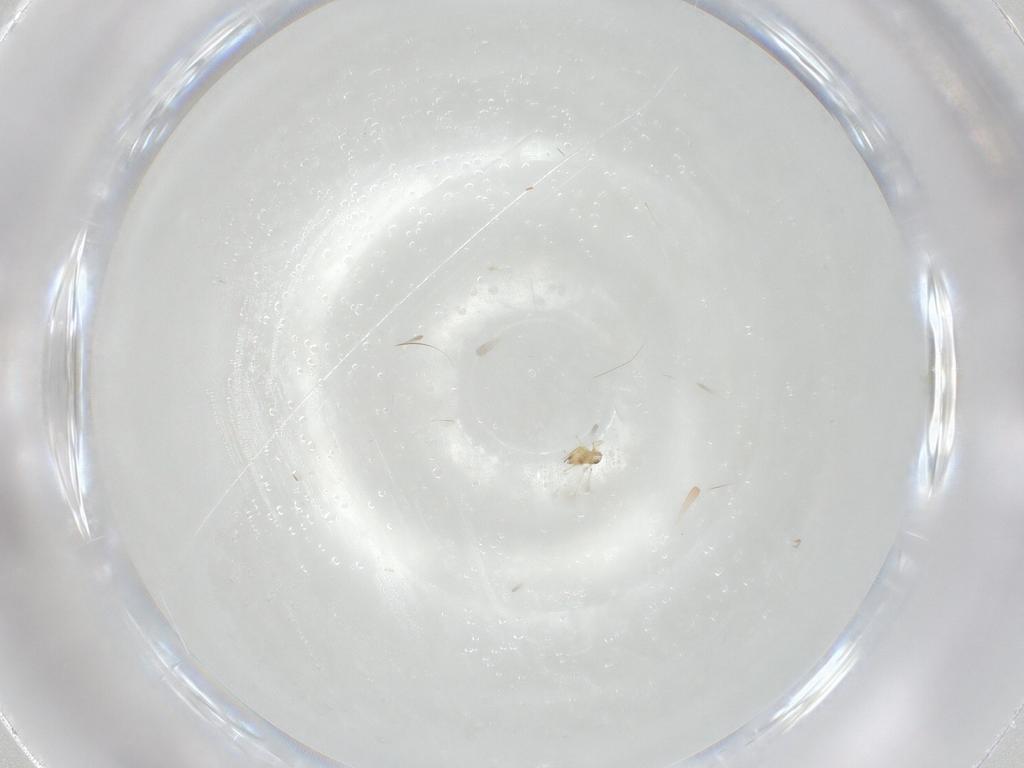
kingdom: Animalia
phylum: Arthropoda
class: Insecta
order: Hymenoptera
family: Mymaridae
